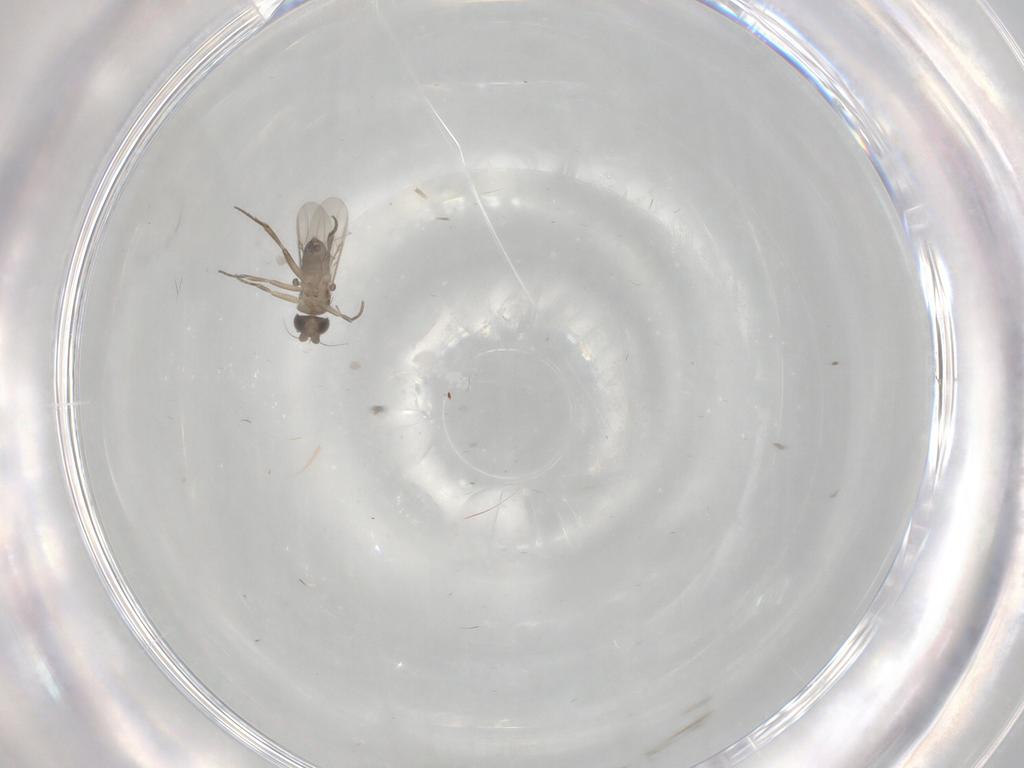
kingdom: Animalia
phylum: Arthropoda
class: Insecta
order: Diptera
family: Phoridae
